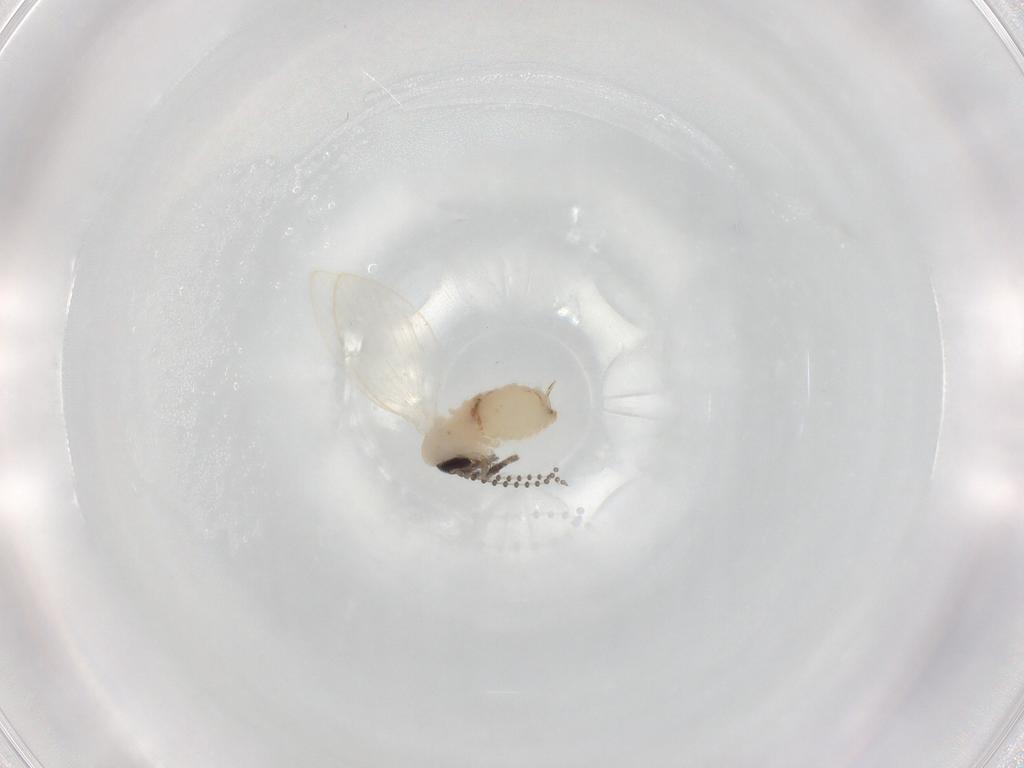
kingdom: Animalia
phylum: Arthropoda
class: Insecta
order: Diptera
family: Psychodidae
